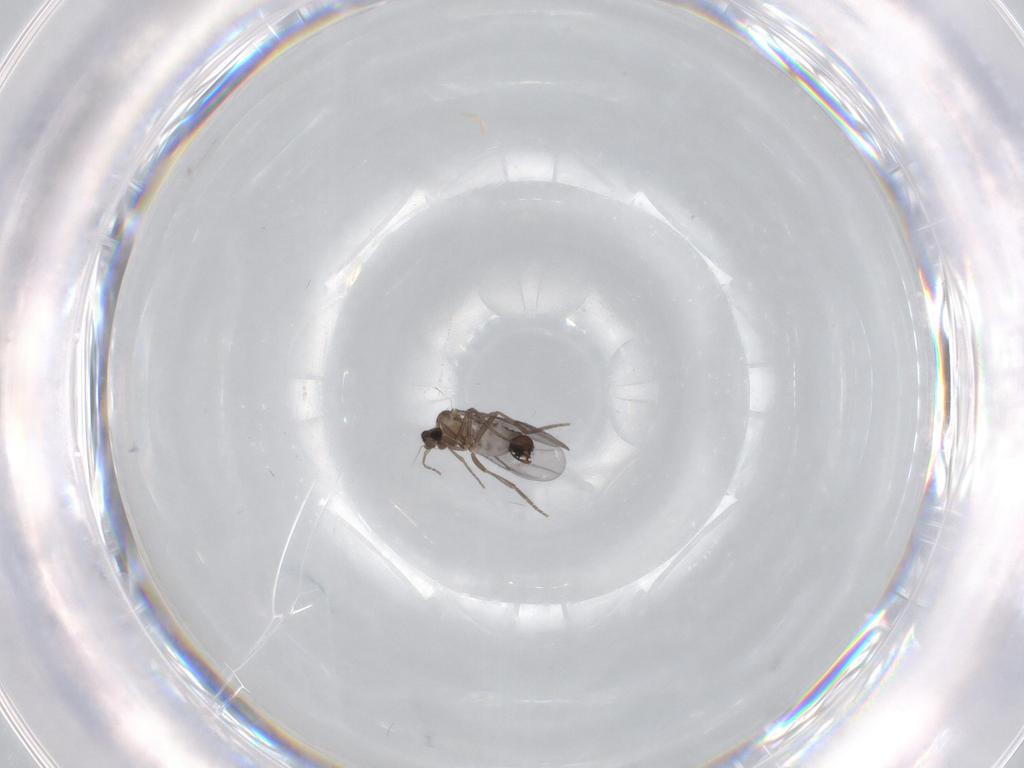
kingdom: Animalia
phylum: Arthropoda
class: Insecta
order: Diptera
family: Phoridae
